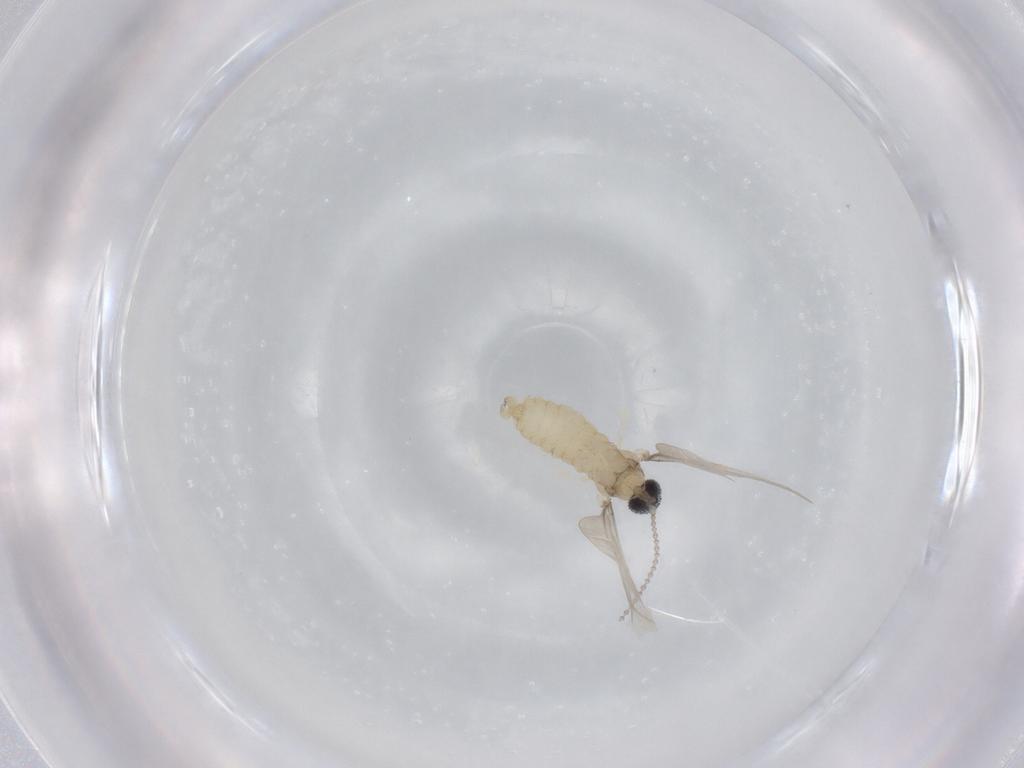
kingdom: Animalia
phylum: Arthropoda
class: Insecta
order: Diptera
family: Cecidomyiidae
